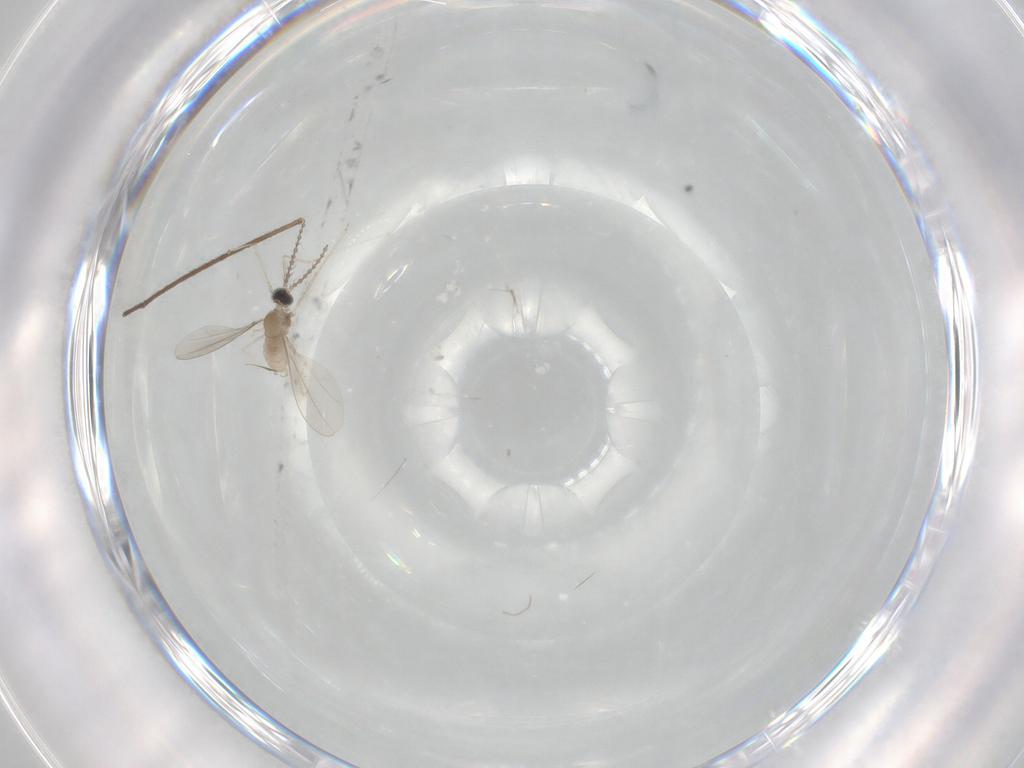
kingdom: Animalia
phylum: Arthropoda
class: Insecta
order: Diptera
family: Chironomidae
